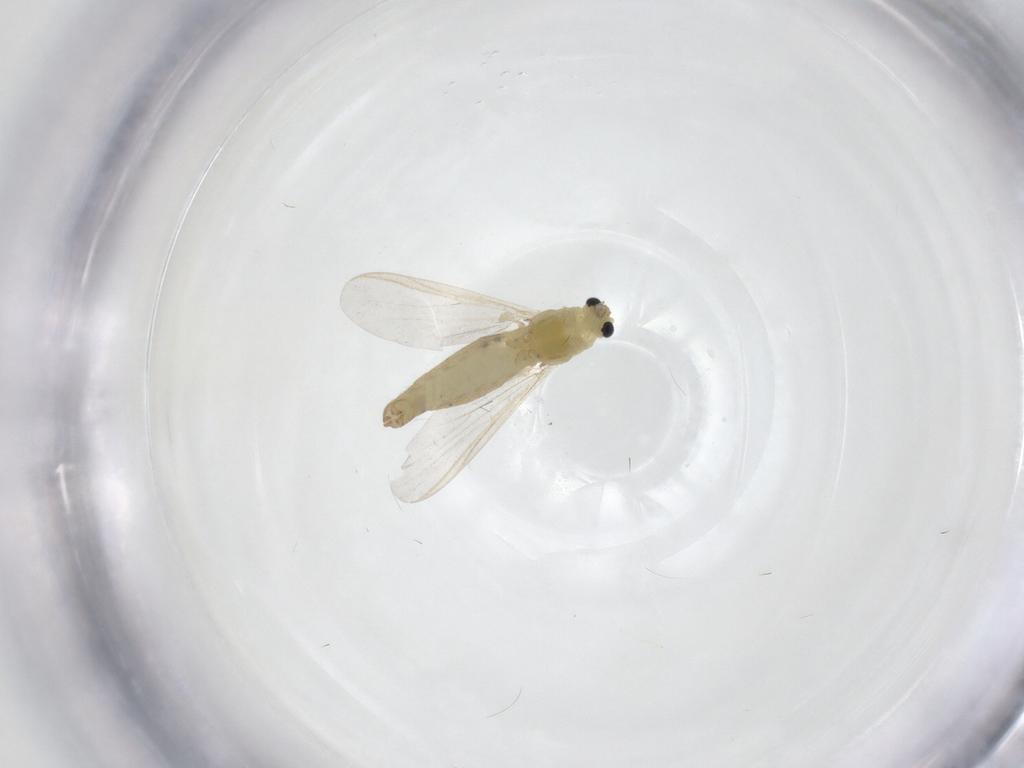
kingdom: Animalia
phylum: Arthropoda
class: Insecta
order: Diptera
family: Chironomidae
